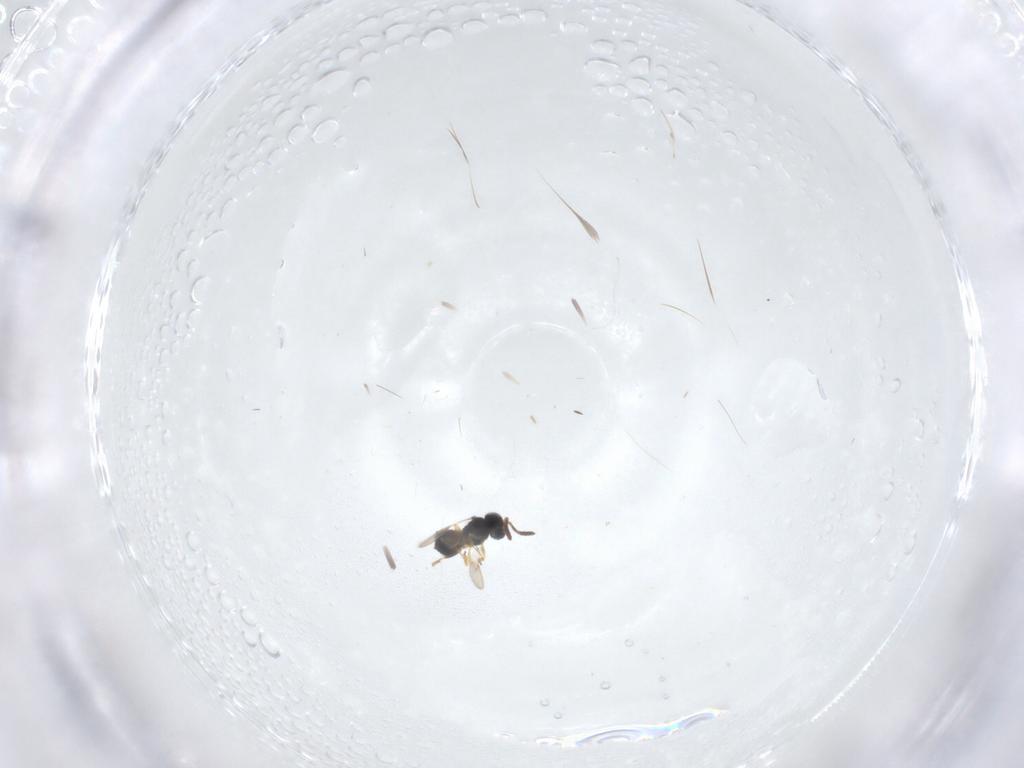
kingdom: Animalia
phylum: Arthropoda
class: Insecta
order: Hymenoptera
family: Scelionidae
